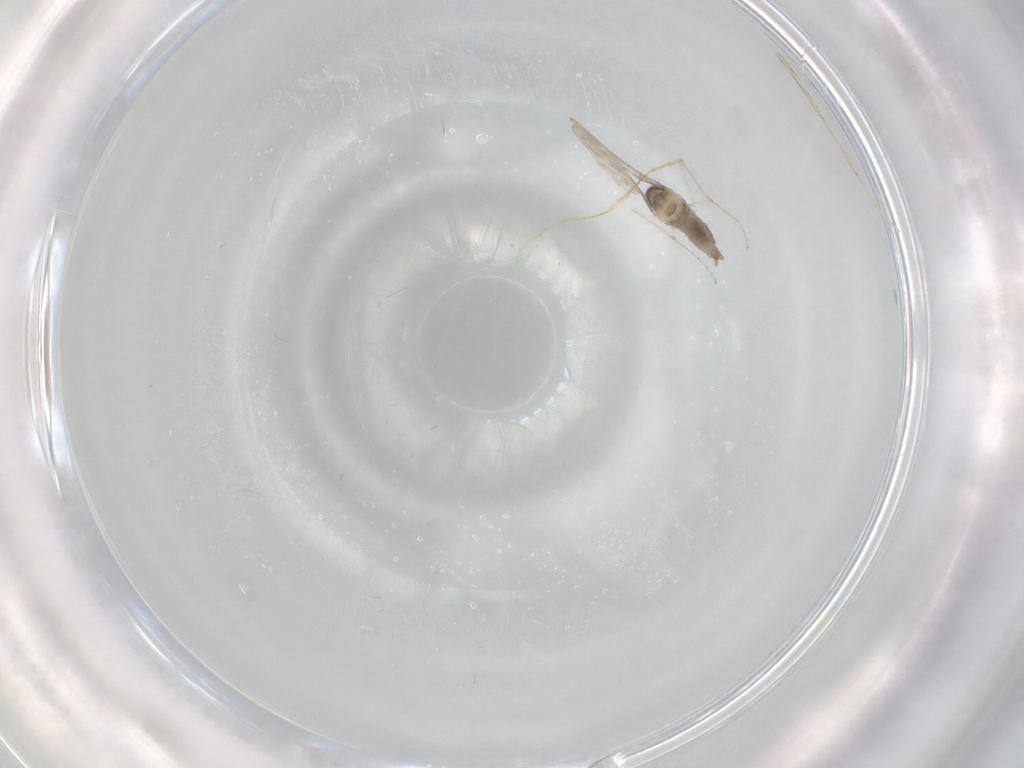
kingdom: Animalia
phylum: Arthropoda
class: Insecta
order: Diptera
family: Cecidomyiidae
